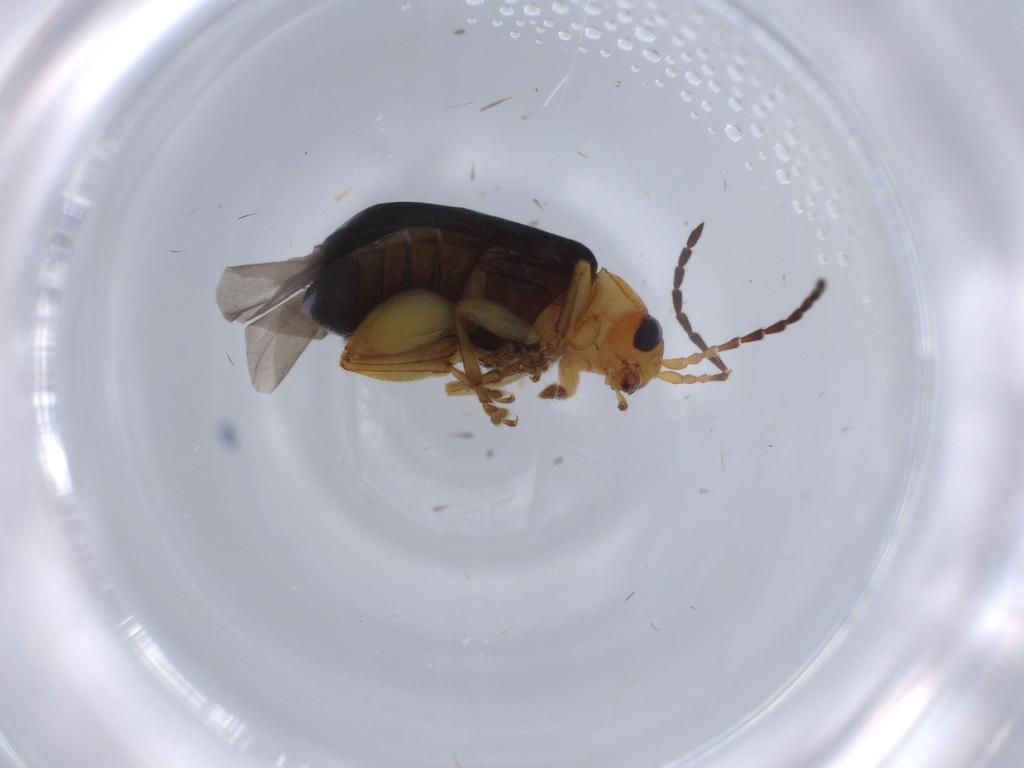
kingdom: Animalia
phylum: Arthropoda
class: Insecta
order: Coleoptera
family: Chrysomelidae
